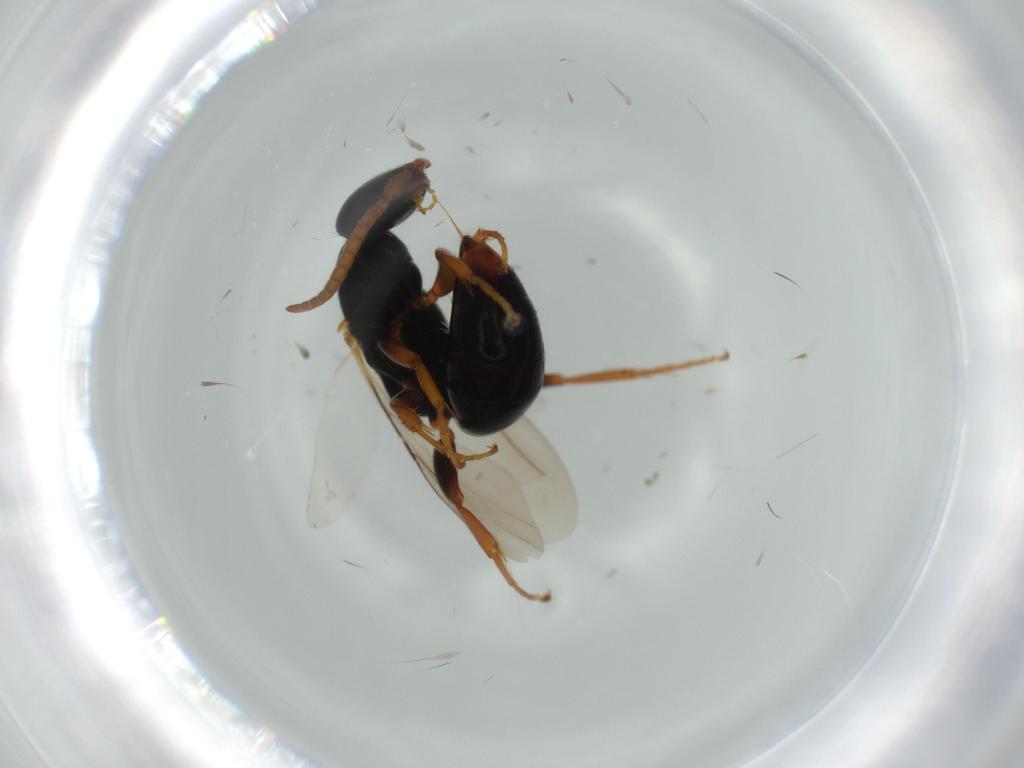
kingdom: Animalia
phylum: Arthropoda
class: Insecta
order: Hymenoptera
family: Bethylidae
